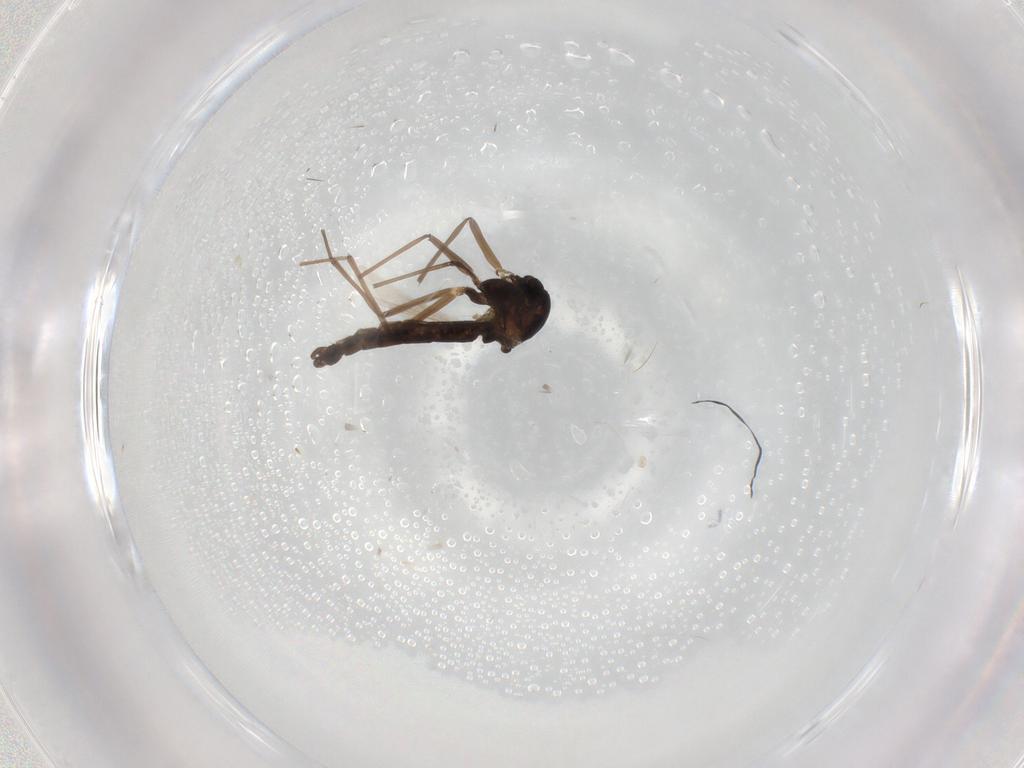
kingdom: Animalia
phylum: Arthropoda
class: Insecta
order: Diptera
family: Chironomidae
